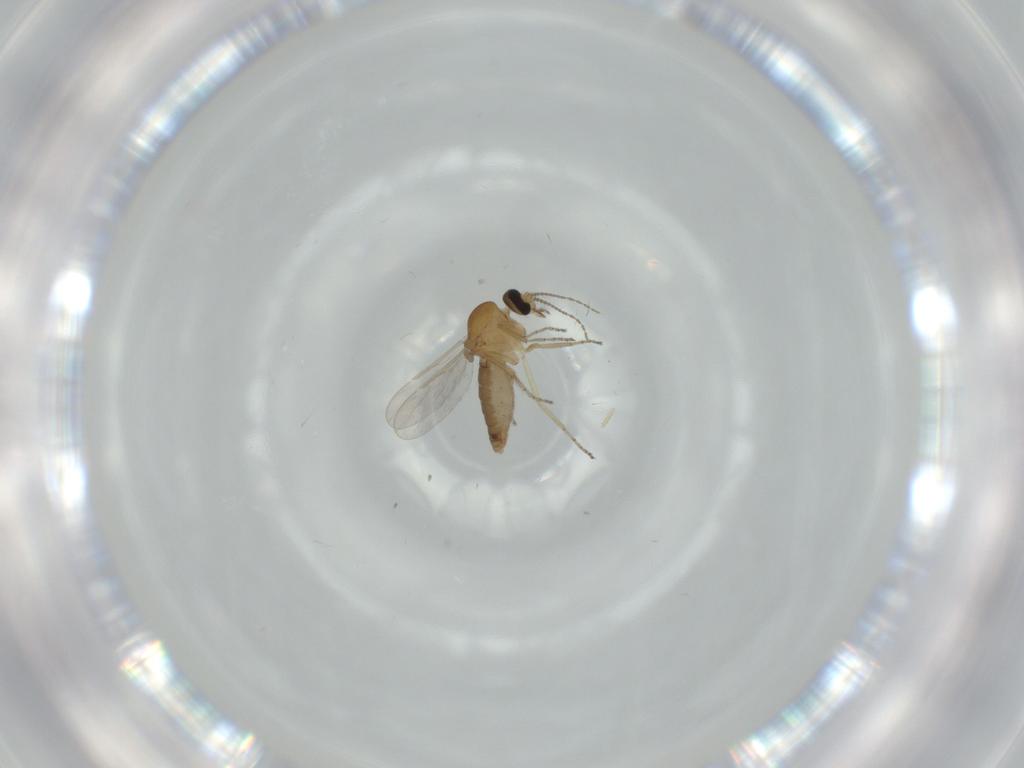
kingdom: Animalia
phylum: Arthropoda
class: Insecta
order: Diptera
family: Ceratopogonidae
